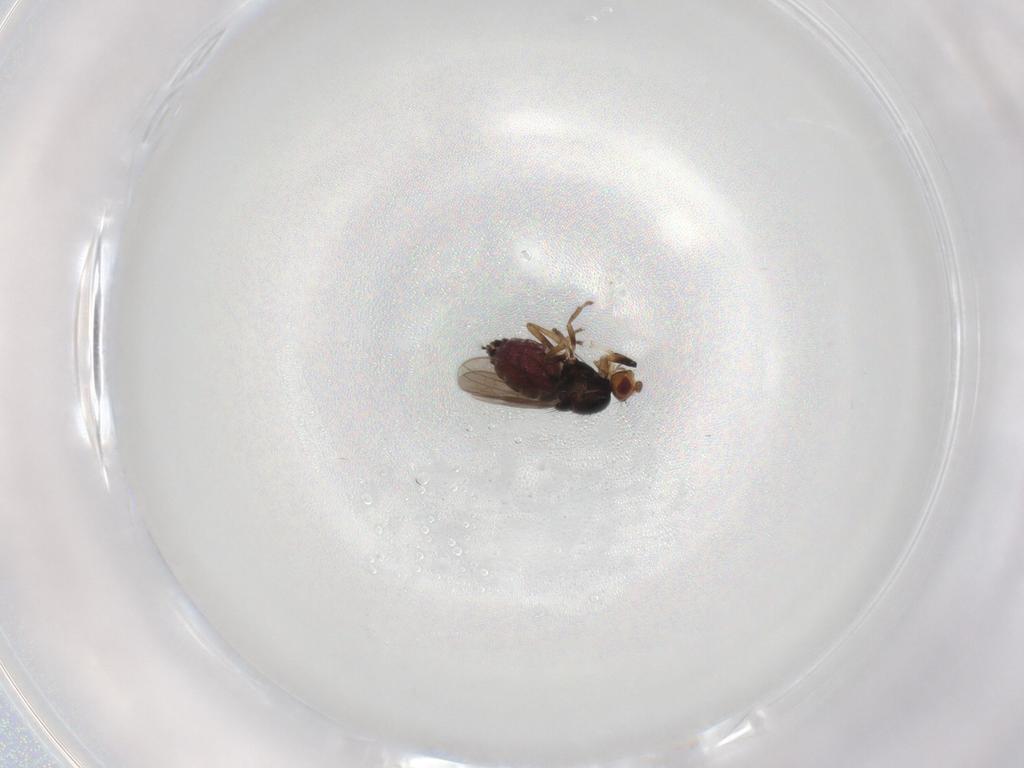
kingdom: Animalia
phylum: Arthropoda
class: Insecta
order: Diptera
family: Sphaeroceridae
